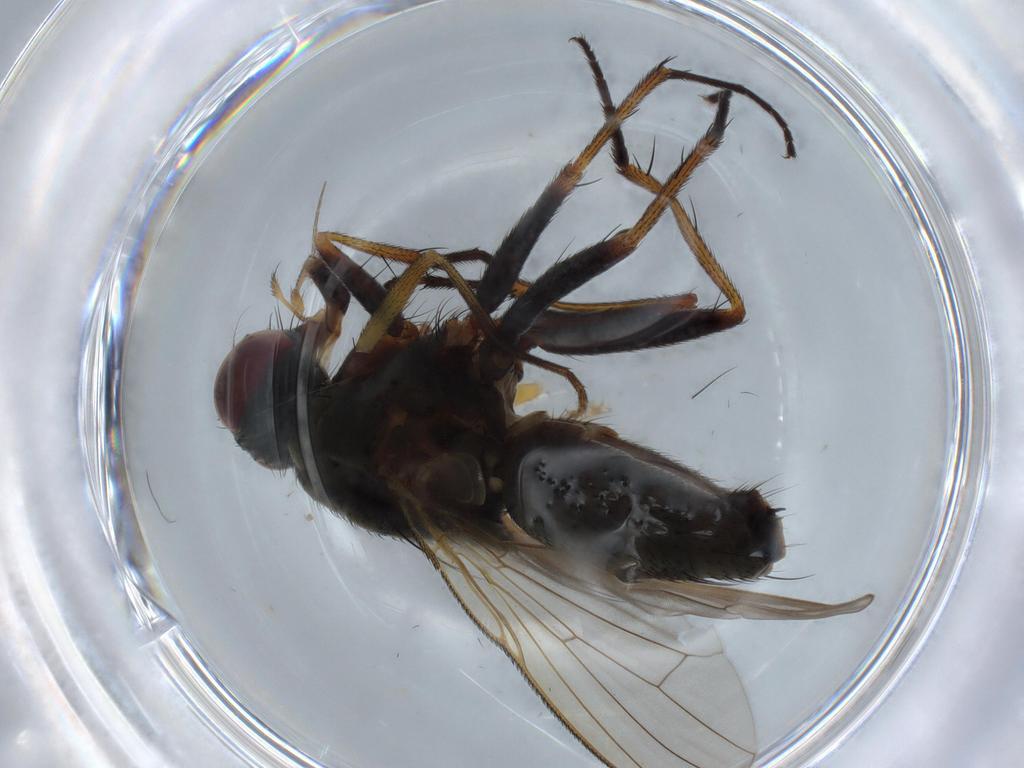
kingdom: Animalia
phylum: Arthropoda
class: Insecta
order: Diptera
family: Muscidae
